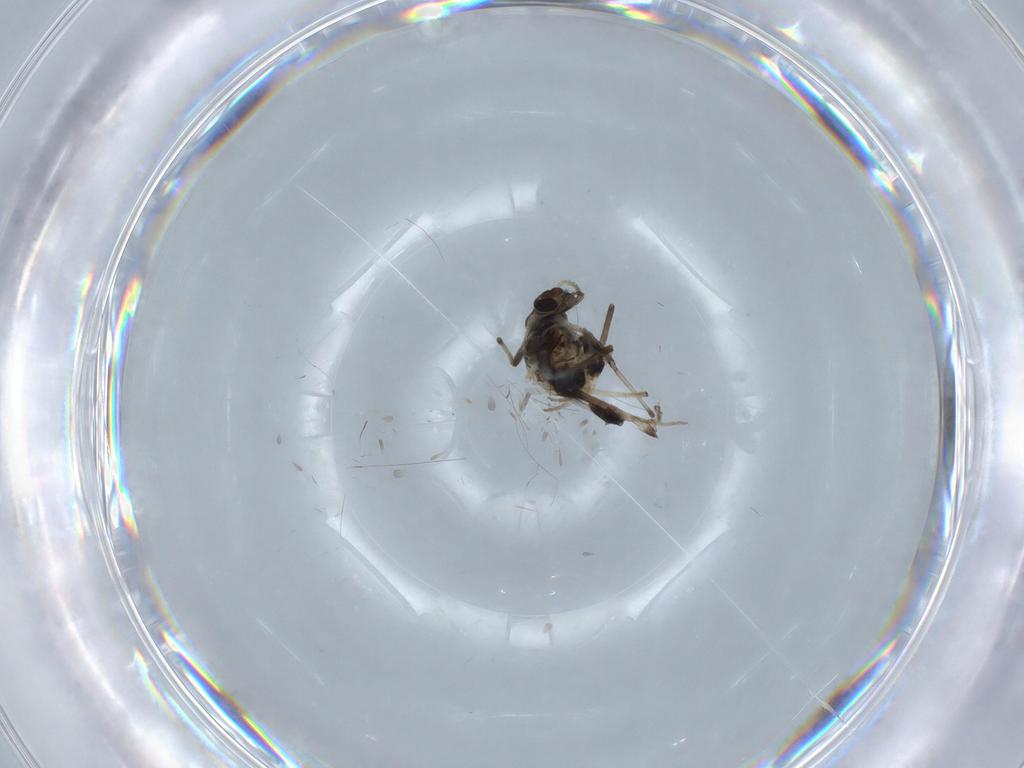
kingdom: Animalia
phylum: Arthropoda
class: Insecta
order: Diptera
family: Chironomidae
